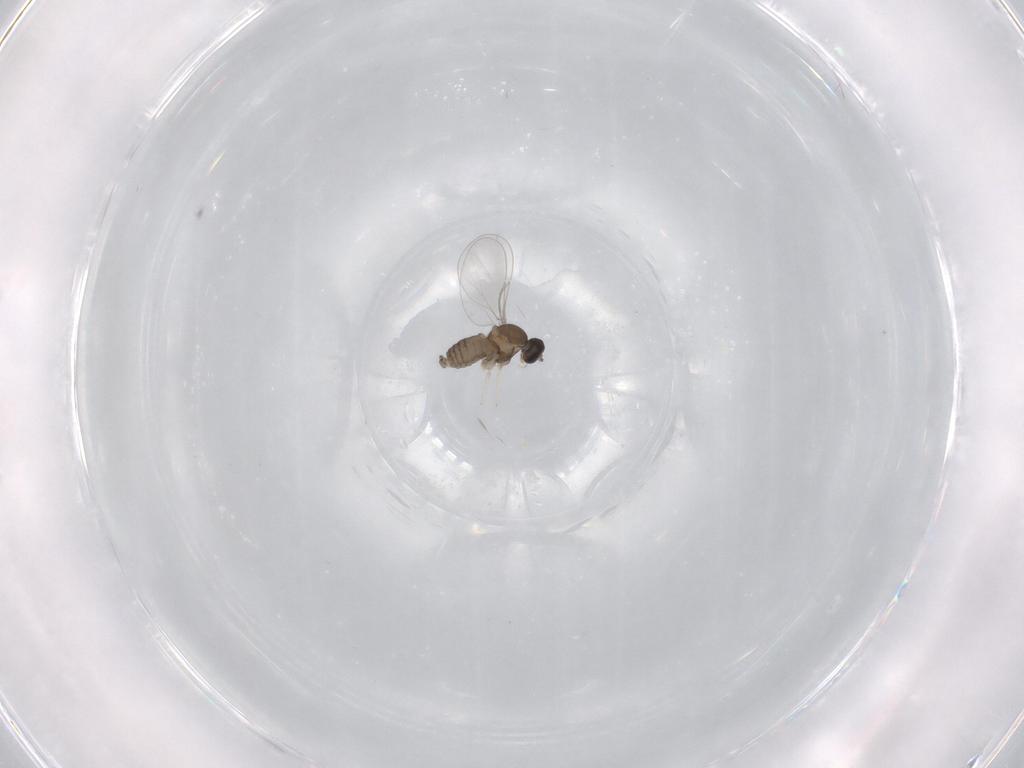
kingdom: Animalia
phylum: Arthropoda
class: Insecta
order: Diptera
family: Cecidomyiidae
